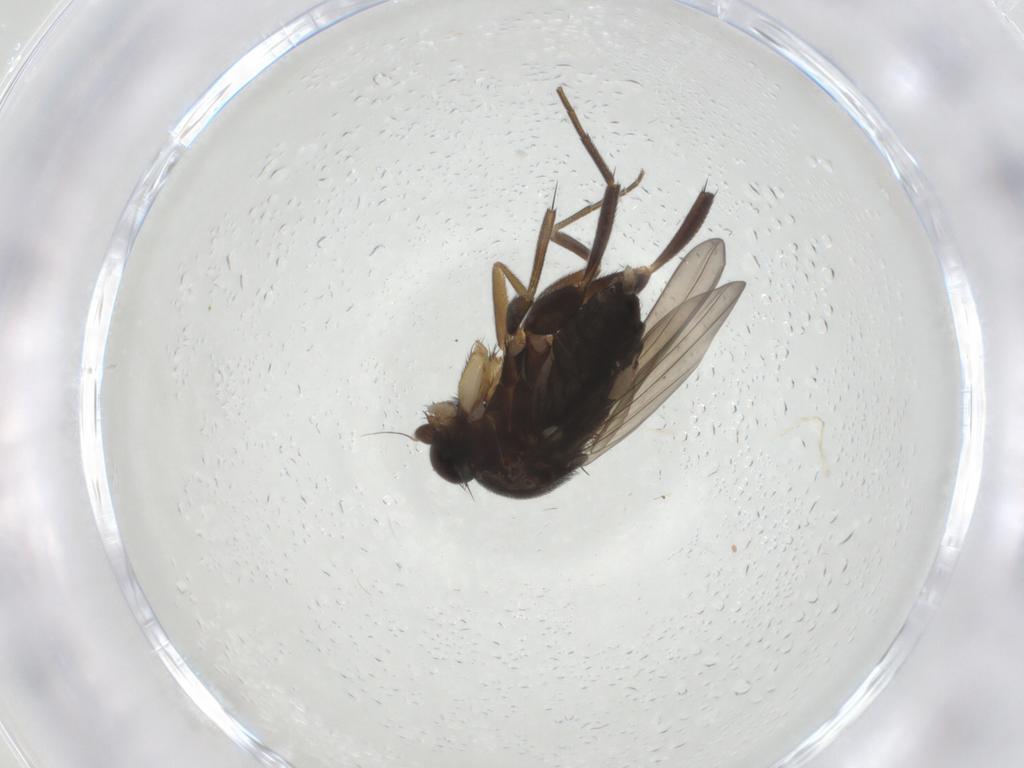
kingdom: Animalia
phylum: Arthropoda
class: Insecta
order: Diptera
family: Phoridae
